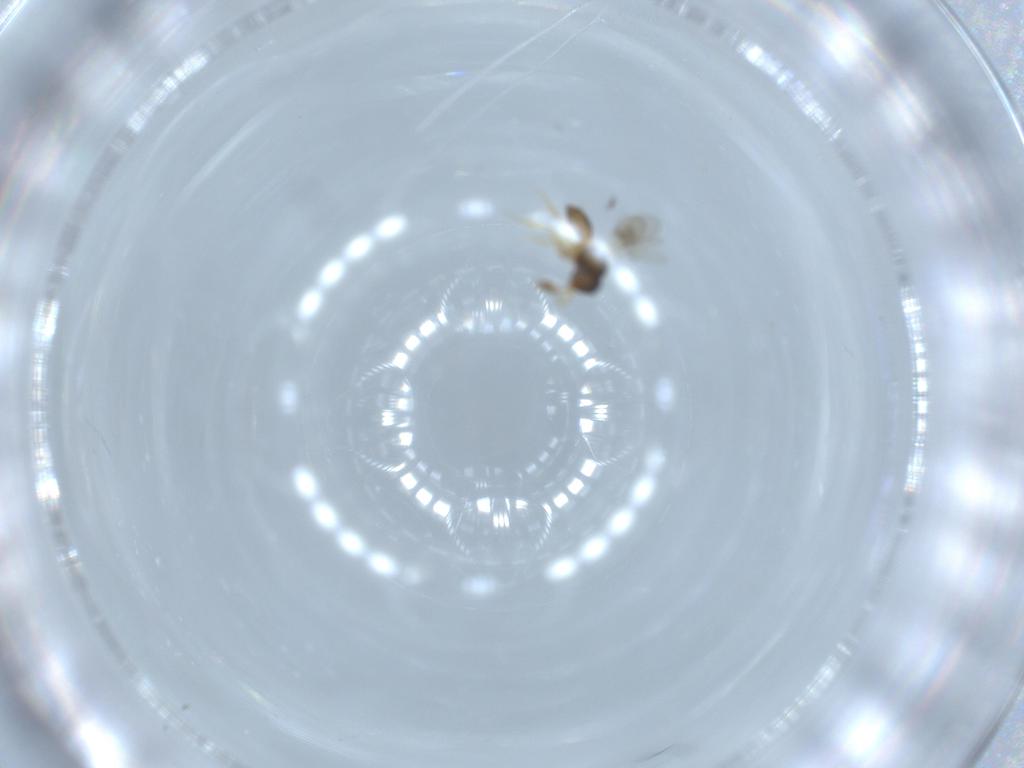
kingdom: Animalia
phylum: Arthropoda
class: Insecta
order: Hymenoptera
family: Scelionidae
